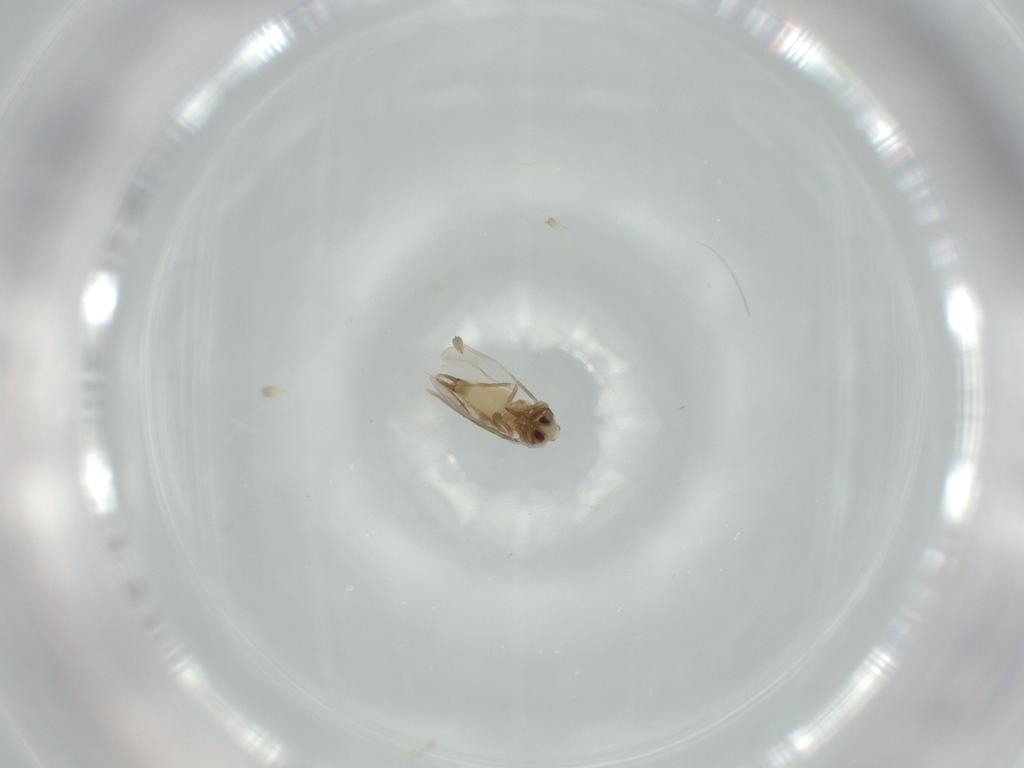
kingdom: Animalia
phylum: Arthropoda
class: Insecta
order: Hemiptera
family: Aleyrodidae
